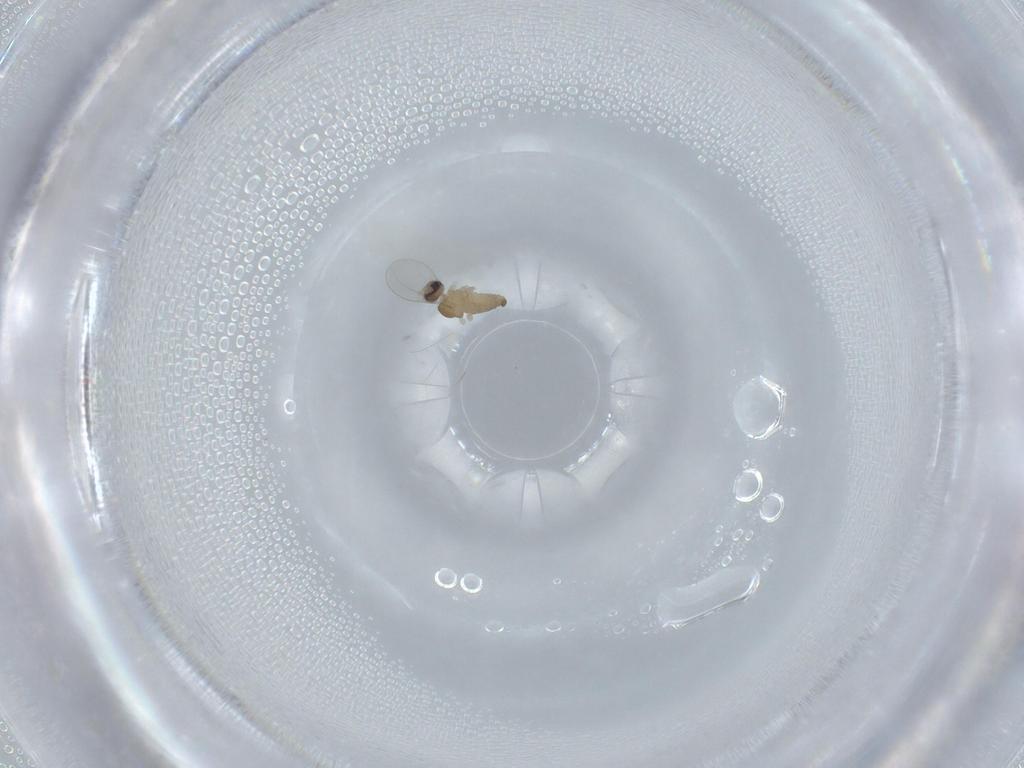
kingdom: Animalia
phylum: Arthropoda
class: Insecta
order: Diptera
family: Cecidomyiidae
